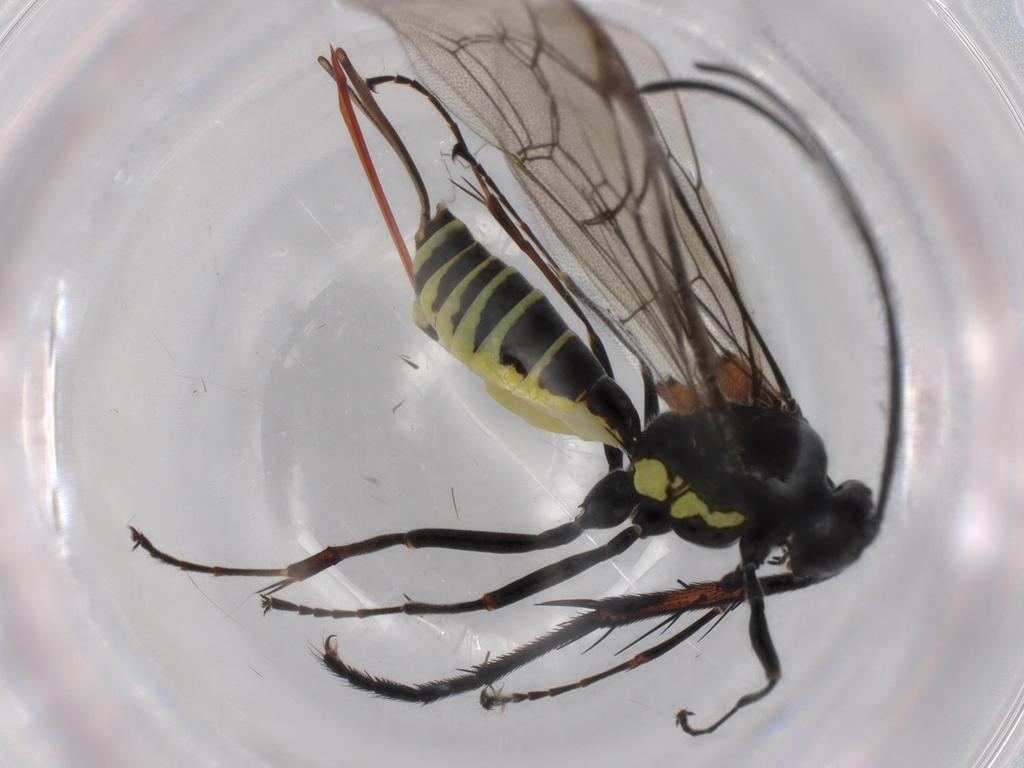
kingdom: Animalia
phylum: Arthropoda
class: Insecta
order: Hymenoptera
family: Ichneumonidae
